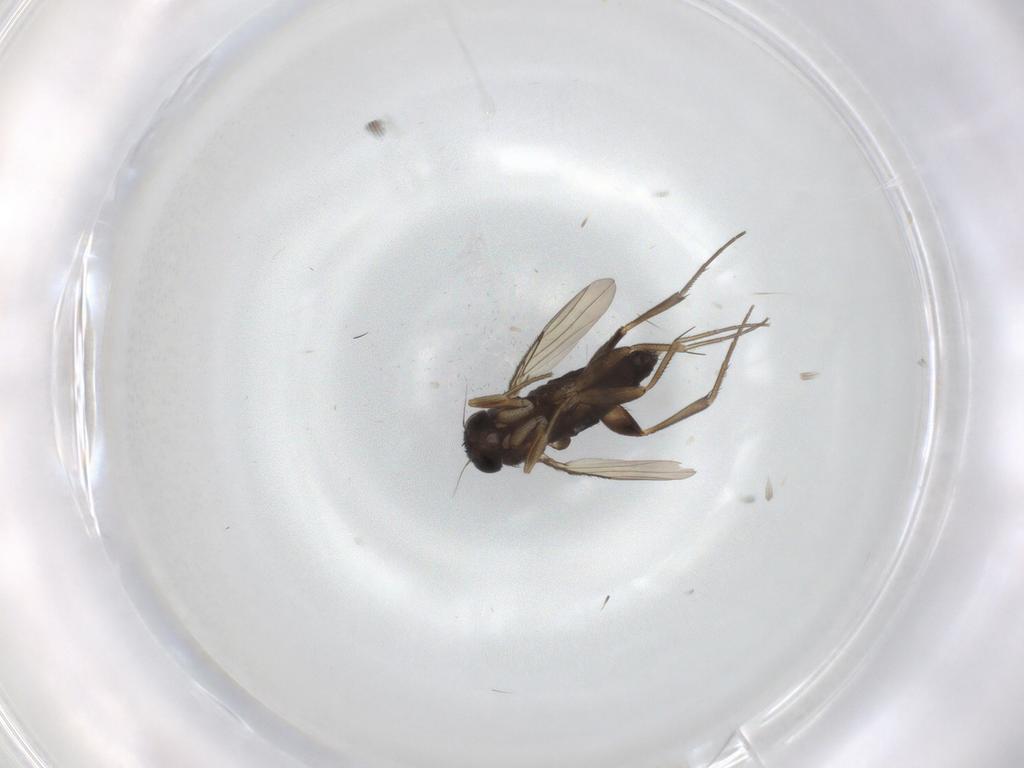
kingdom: Animalia
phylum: Arthropoda
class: Insecta
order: Diptera
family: Phoridae
